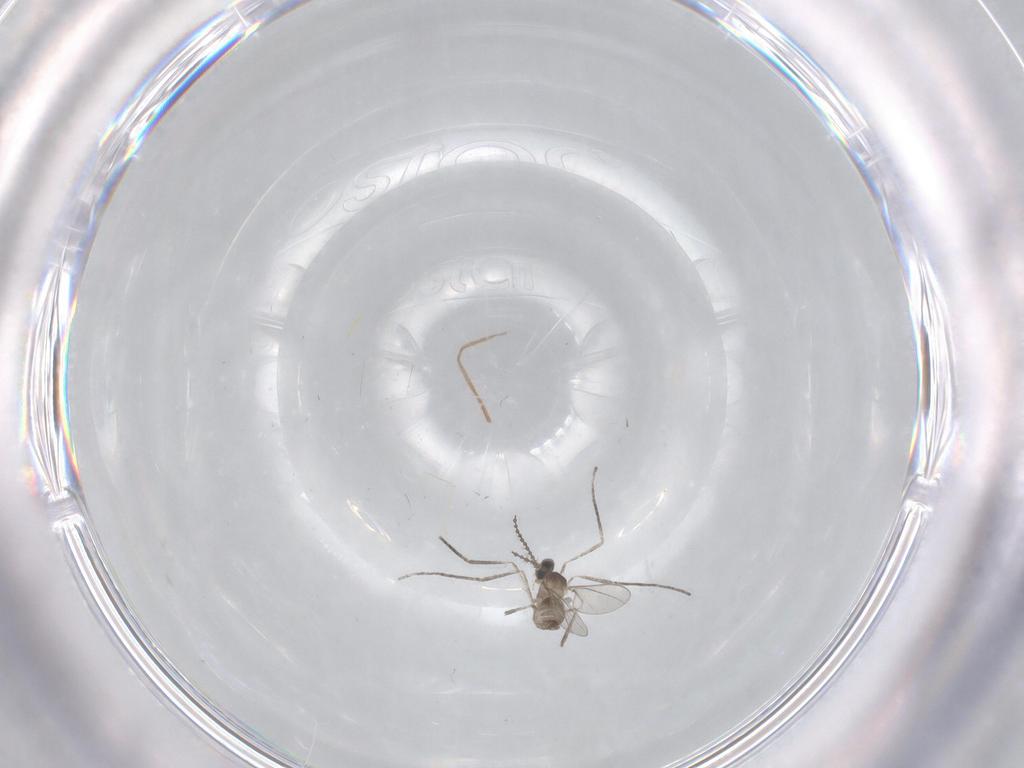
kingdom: Animalia
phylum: Arthropoda
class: Insecta
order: Diptera
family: Cecidomyiidae
